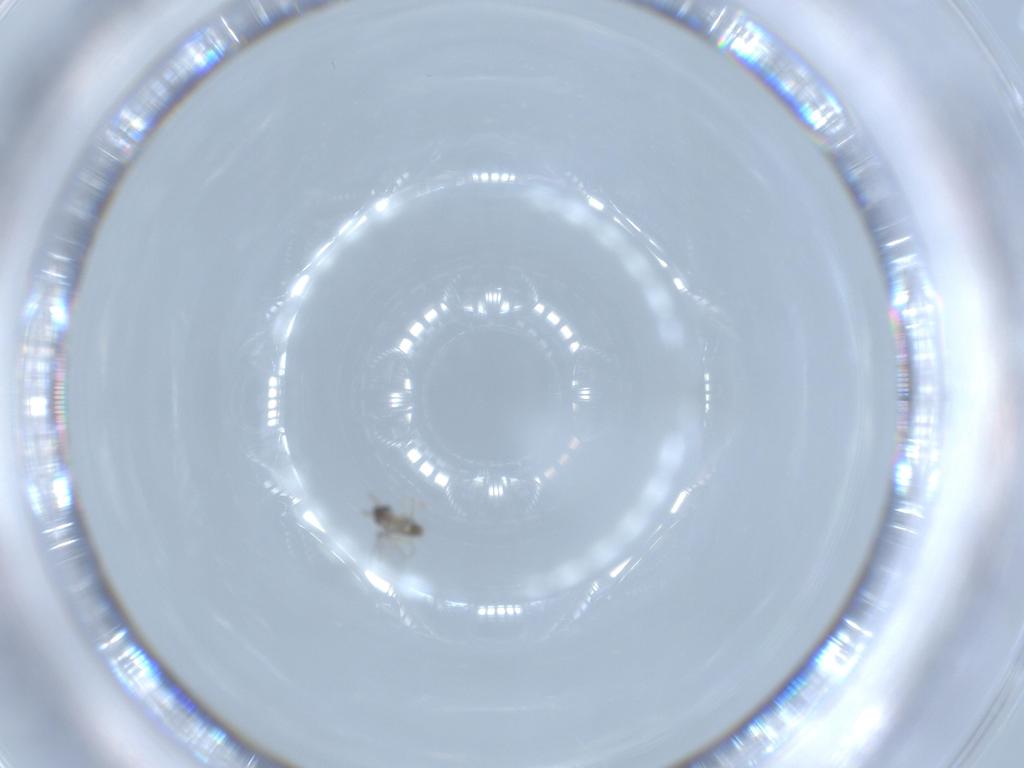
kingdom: Animalia
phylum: Arthropoda
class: Insecta
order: Diptera
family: Cecidomyiidae
